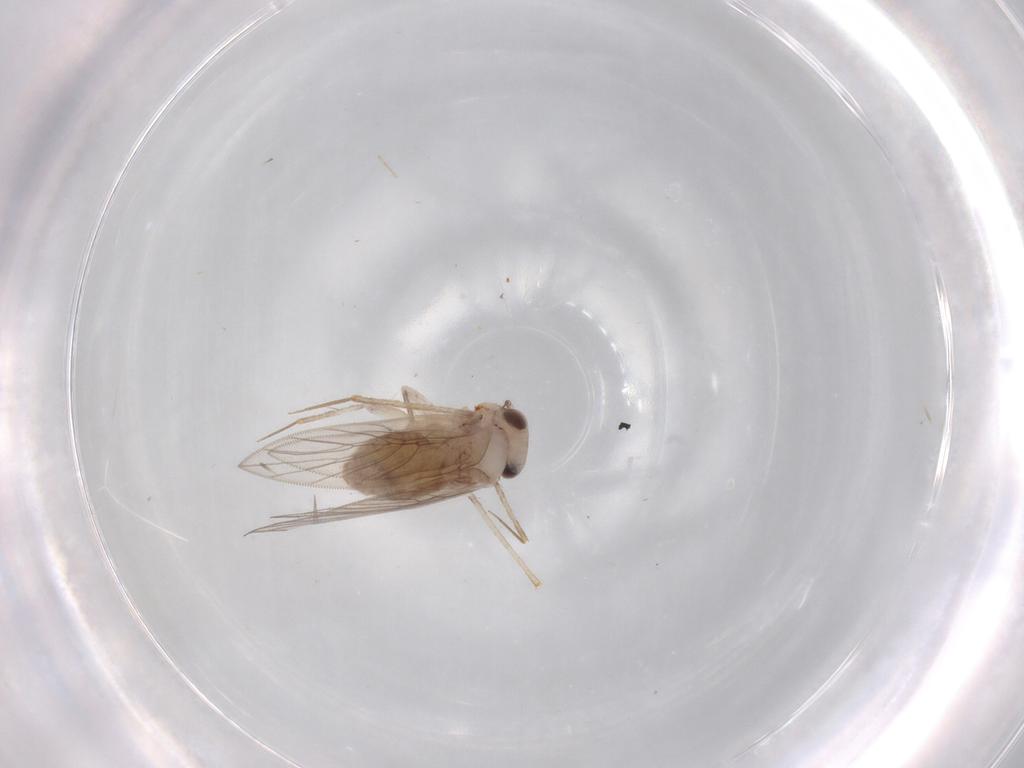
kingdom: Animalia
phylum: Arthropoda
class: Insecta
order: Psocodea
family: Lepidopsocidae
